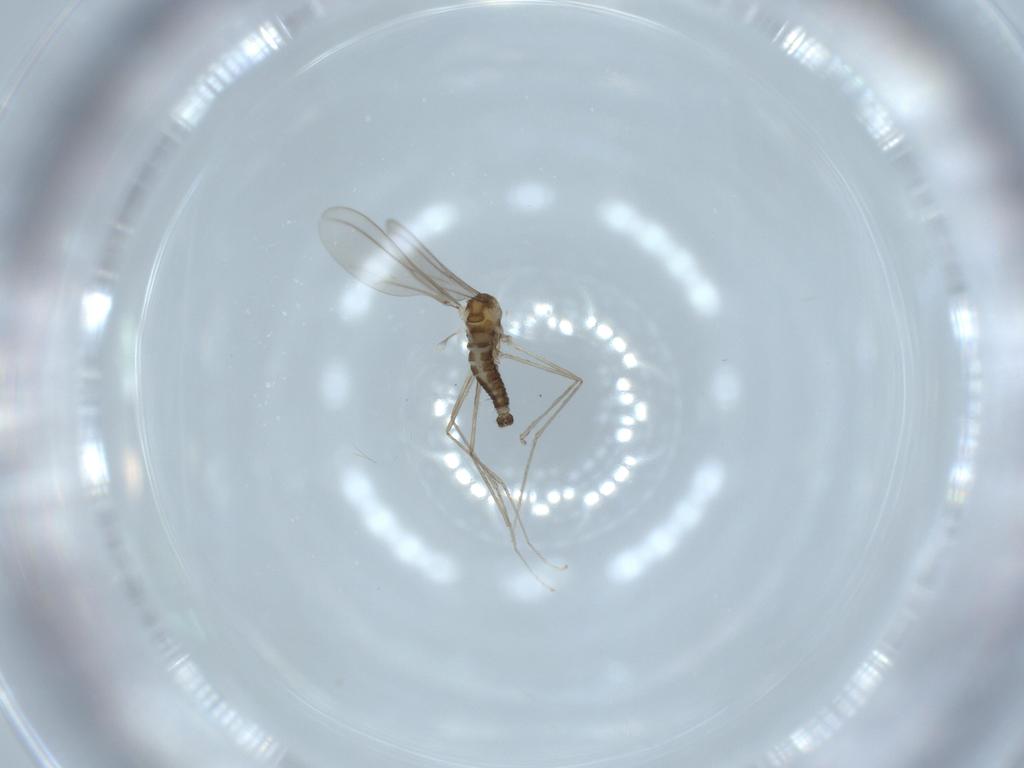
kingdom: Animalia
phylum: Arthropoda
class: Insecta
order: Diptera
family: Cecidomyiidae
